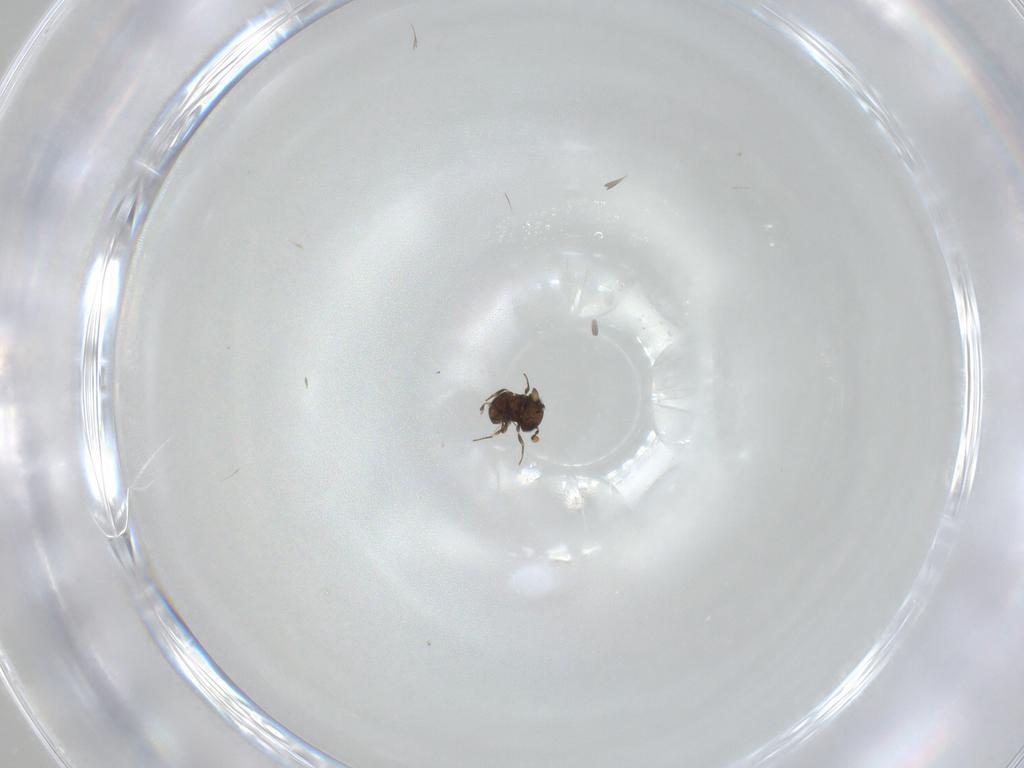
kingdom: Animalia
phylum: Arthropoda
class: Insecta
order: Hymenoptera
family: Scelionidae
